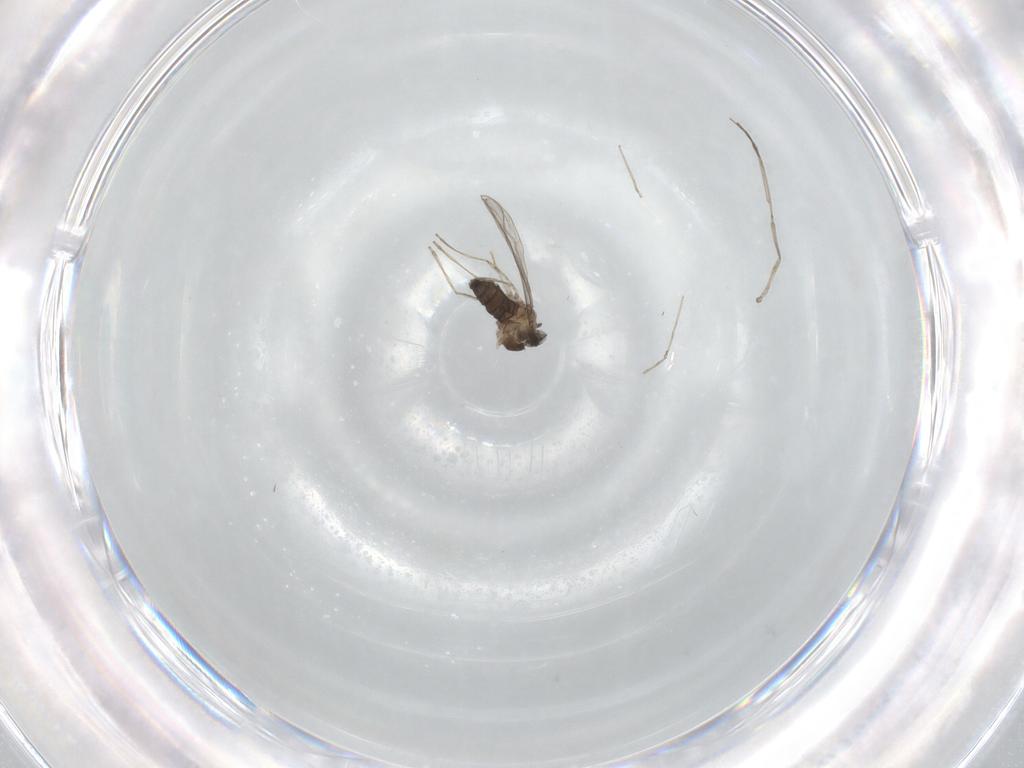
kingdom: Animalia
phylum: Arthropoda
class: Insecta
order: Diptera
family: Cecidomyiidae
